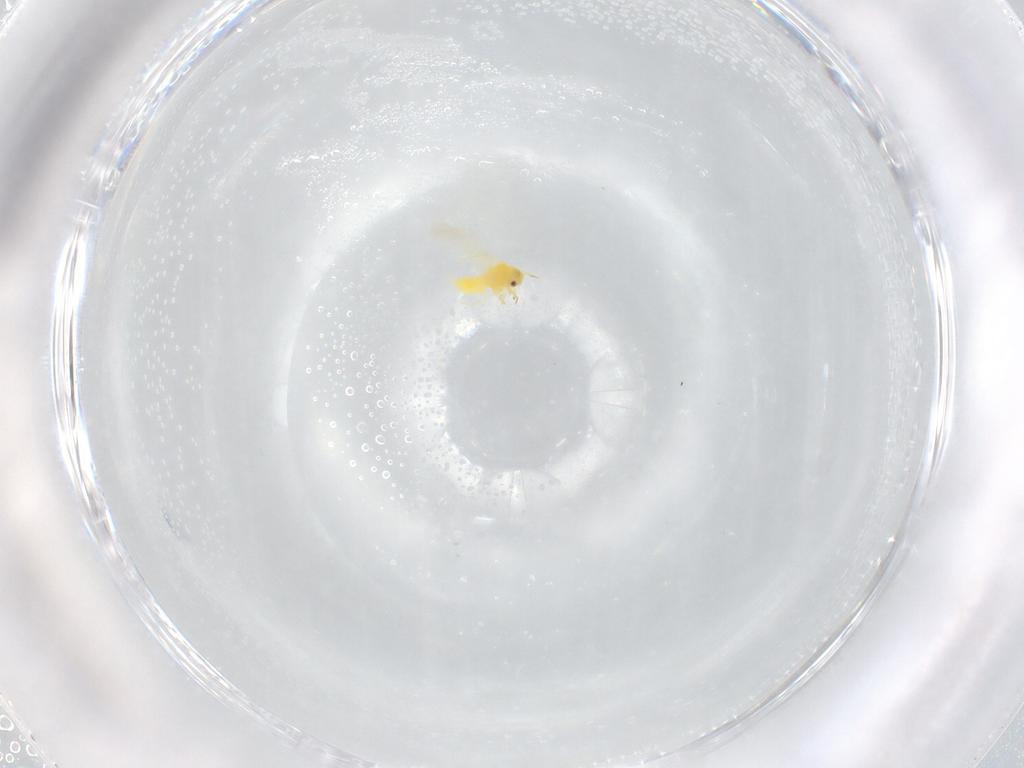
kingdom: Animalia
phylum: Arthropoda
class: Insecta
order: Hemiptera
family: Aleyrodidae
